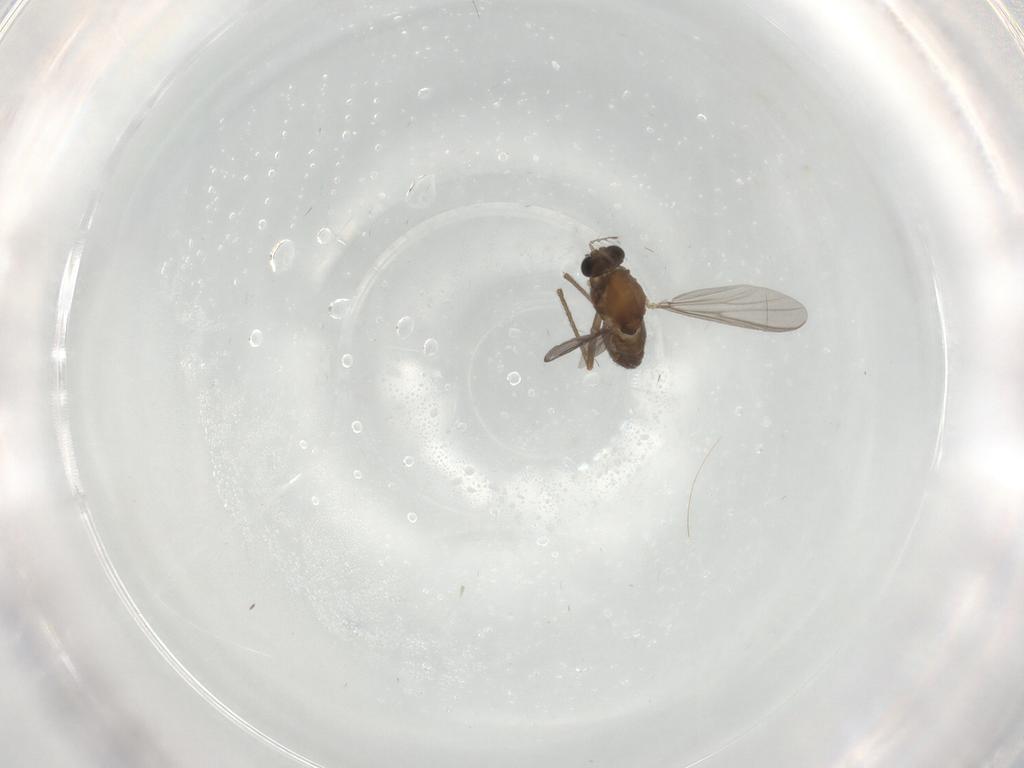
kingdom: Animalia
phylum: Arthropoda
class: Insecta
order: Diptera
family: Chironomidae
